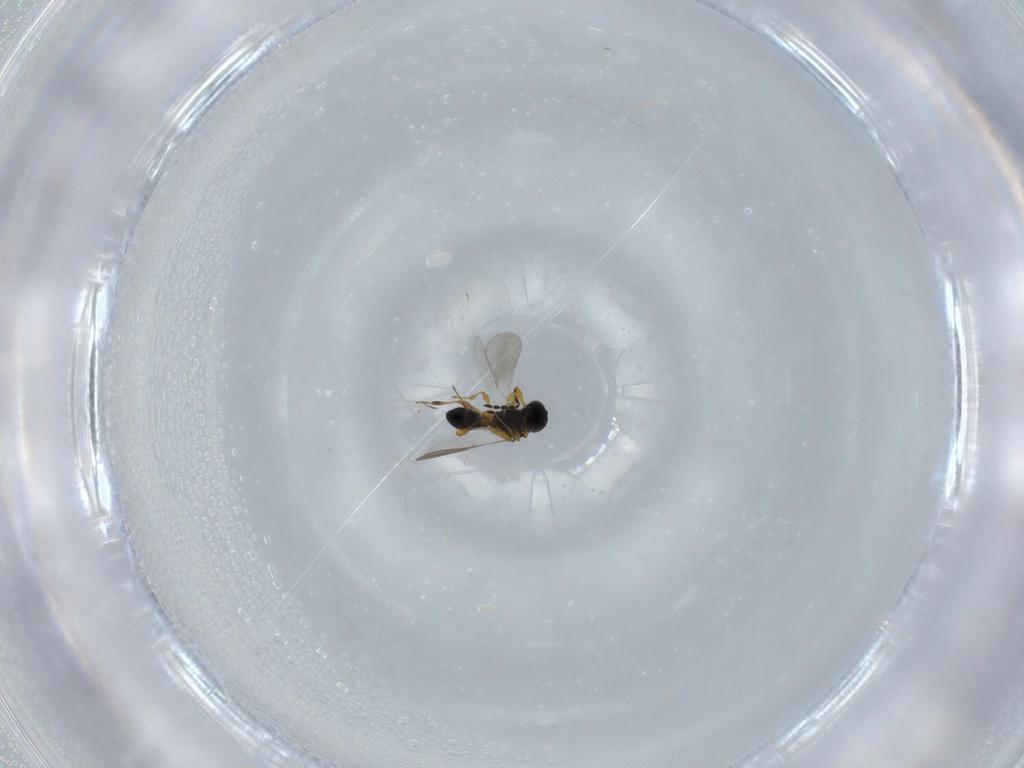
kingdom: Animalia
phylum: Arthropoda
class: Insecta
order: Hymenoptera
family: Platygastridae
